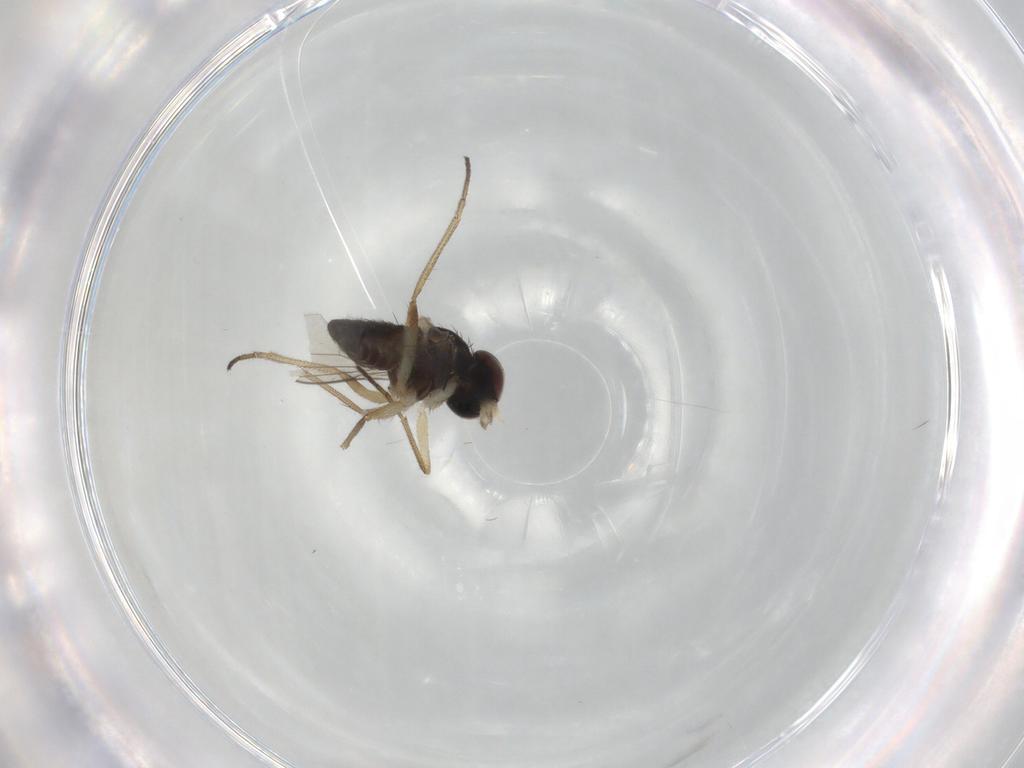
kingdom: Animalia
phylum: Arthropoda
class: Insecta
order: Diptera
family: Dolichopodidae
